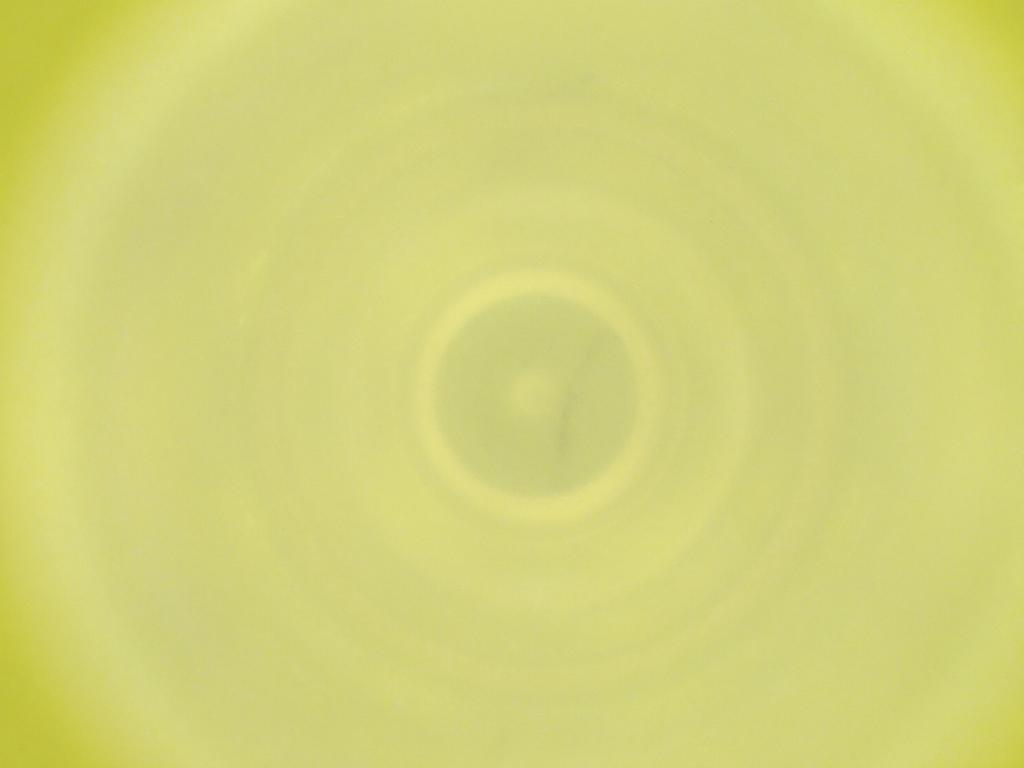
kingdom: Animalia
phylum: Arthropoda
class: Insecta
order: Diptera
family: Cecidomyiidae
